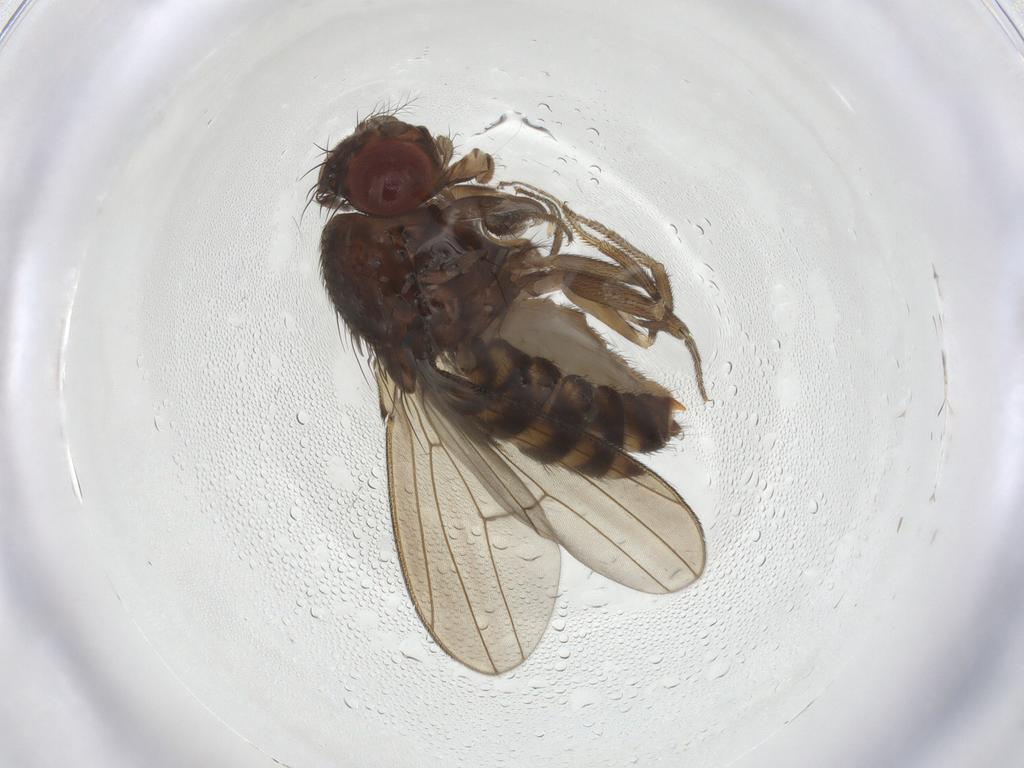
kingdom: Animalia
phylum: Arthropoda
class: Insecta
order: Diptera
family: Drosophilidae
